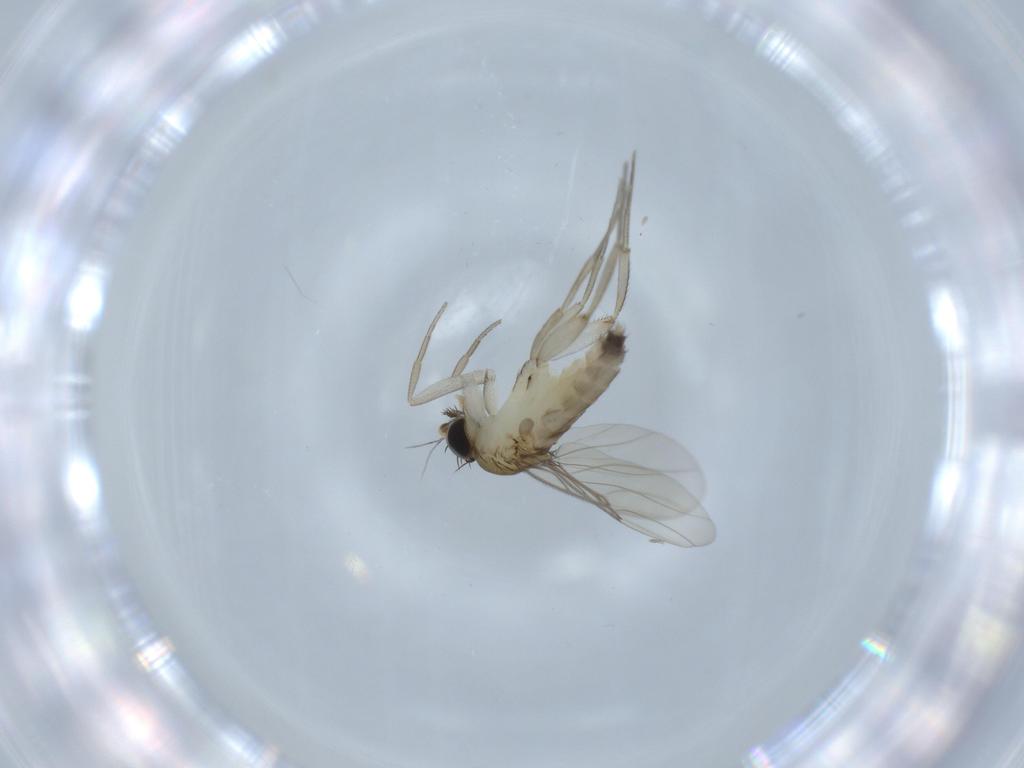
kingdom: Animalia
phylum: Arthropoda
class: Insecta
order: Diptera
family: Phoridae
